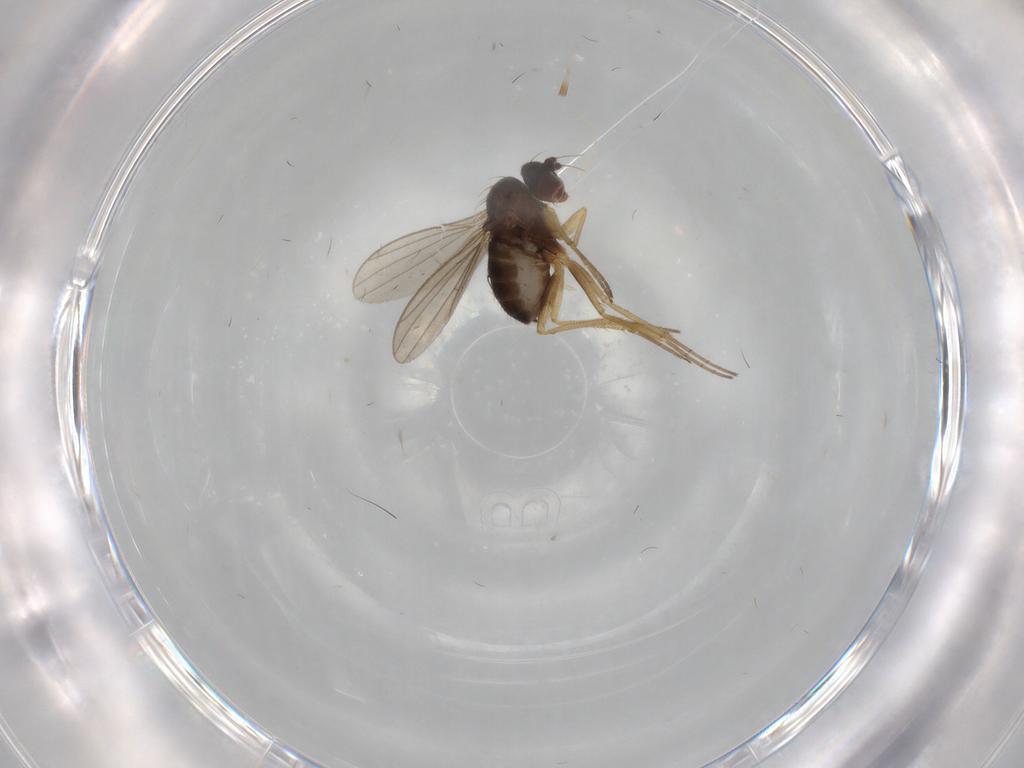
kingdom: Animalia
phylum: Arthropoda
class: Insecta
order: Diptera
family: Dolichopodidae
